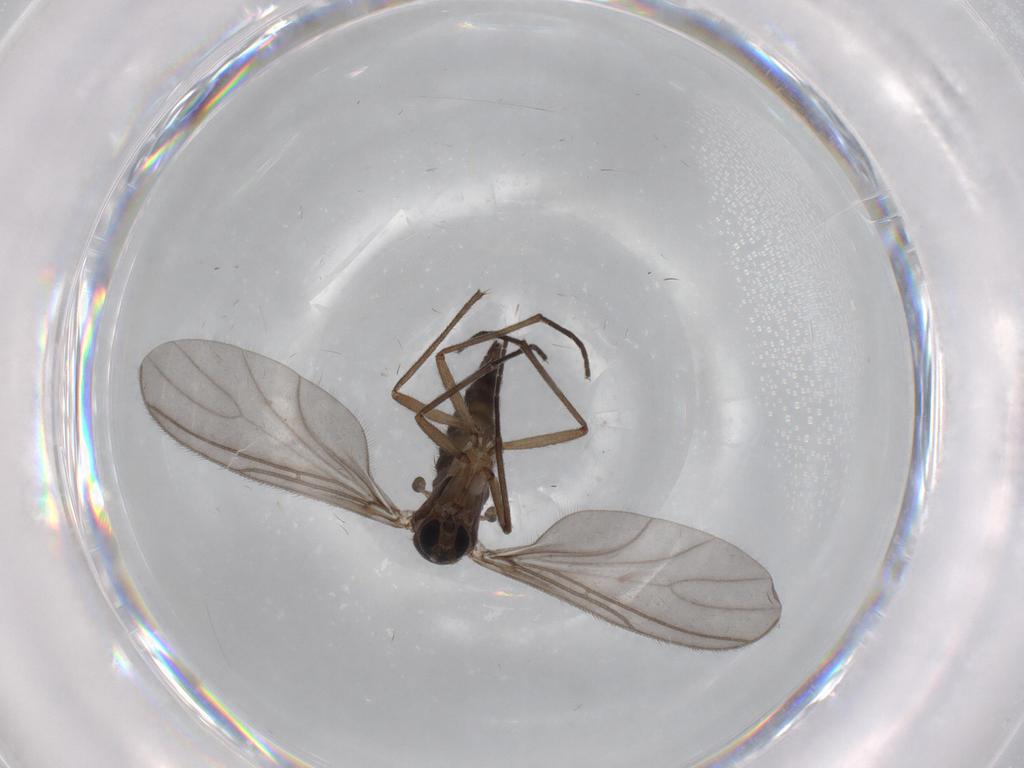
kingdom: Animalia
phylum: Arthropoda
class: Insecta
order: Diptera
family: Sciaridae
